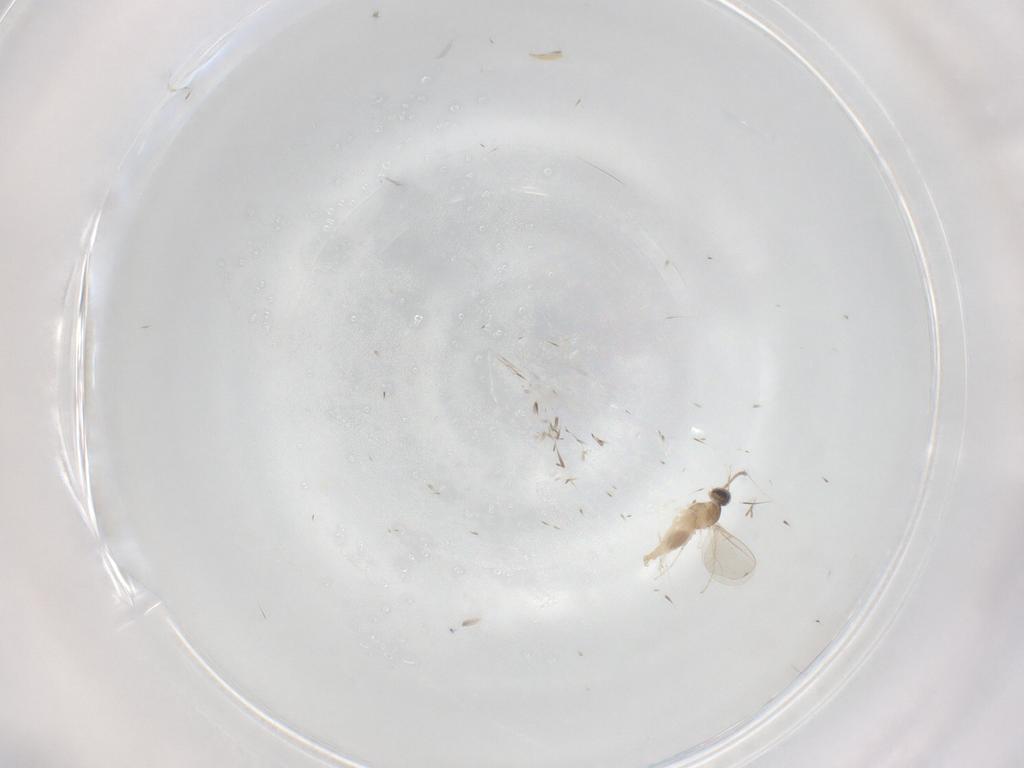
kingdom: Animalia
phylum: Arthropoda
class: Insecta
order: Diptera
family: Cecidomyiidae
